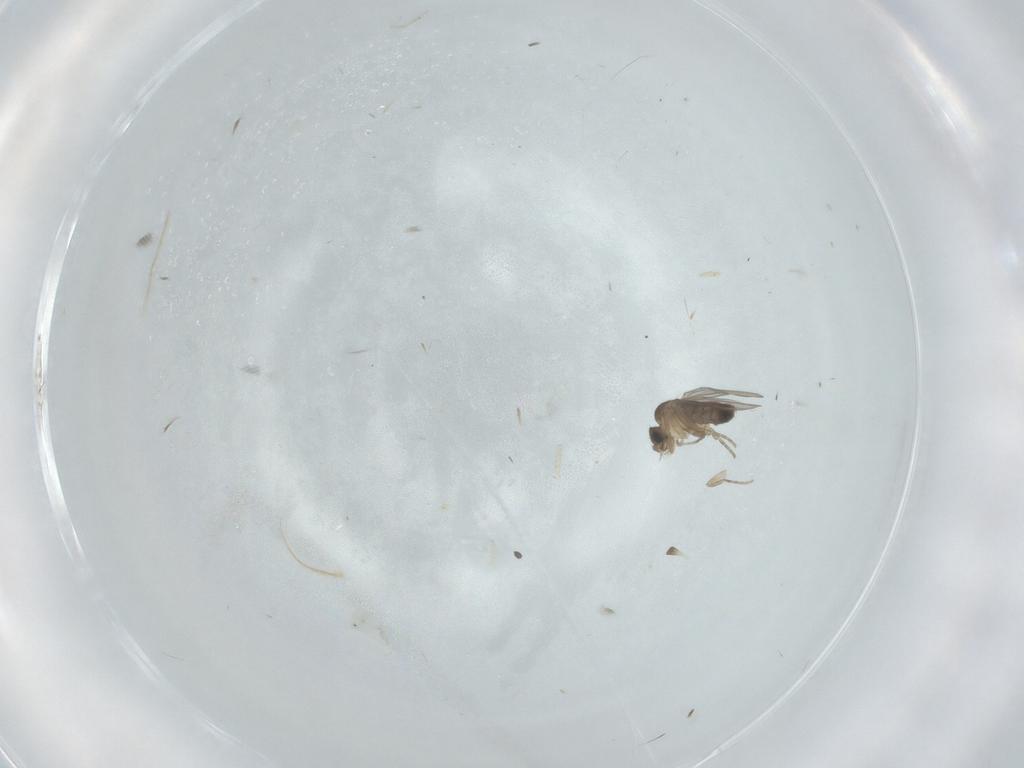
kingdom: Animalia
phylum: Arthropoda
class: Insecta
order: Diptera
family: Phoridae
